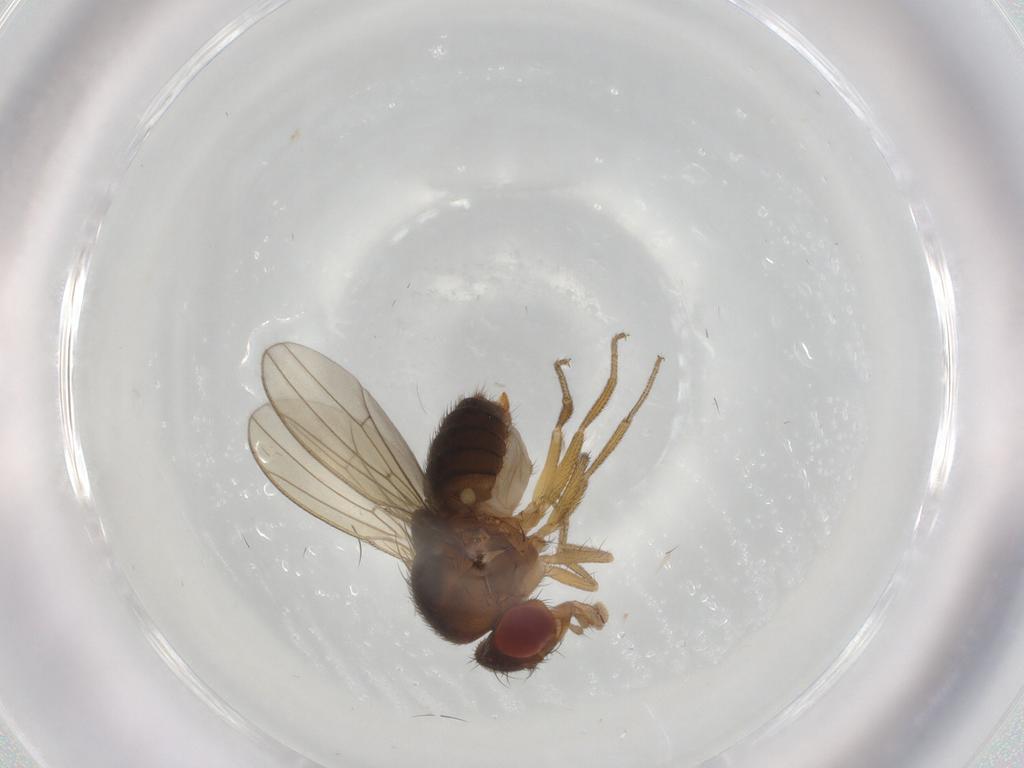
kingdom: Animalia
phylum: Arthropoda
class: Insecta
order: Diptera
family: Drosophilidae
